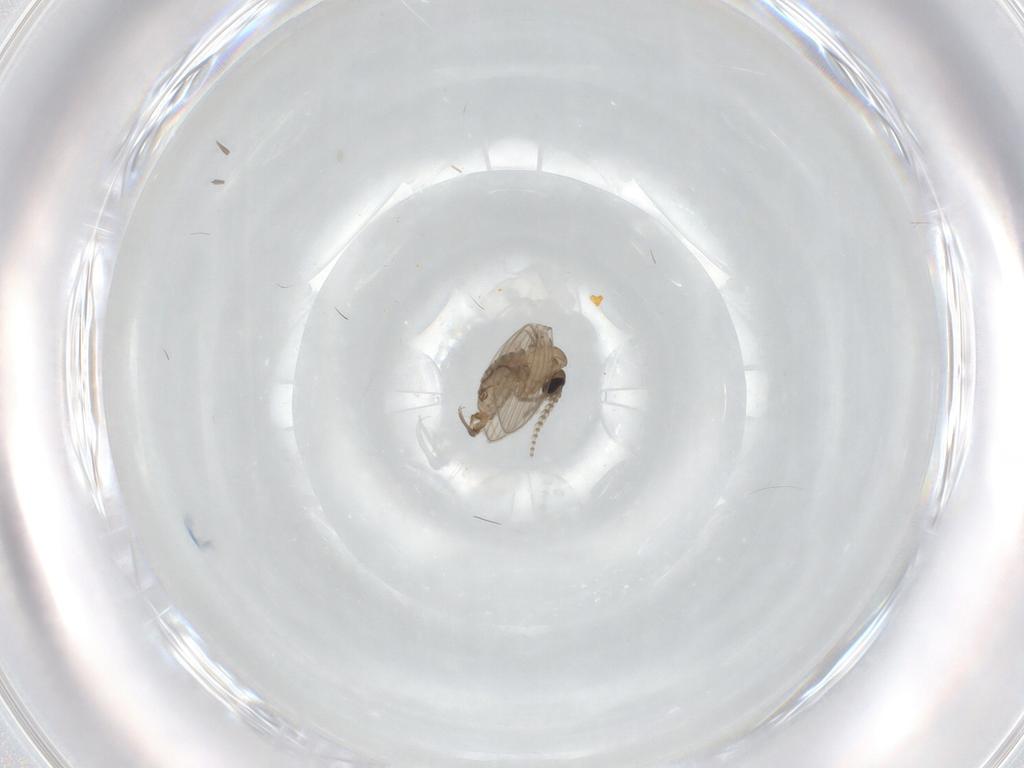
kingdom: Animalia
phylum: Arthropoda
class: Insecta
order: Diptera
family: Psychodidae
